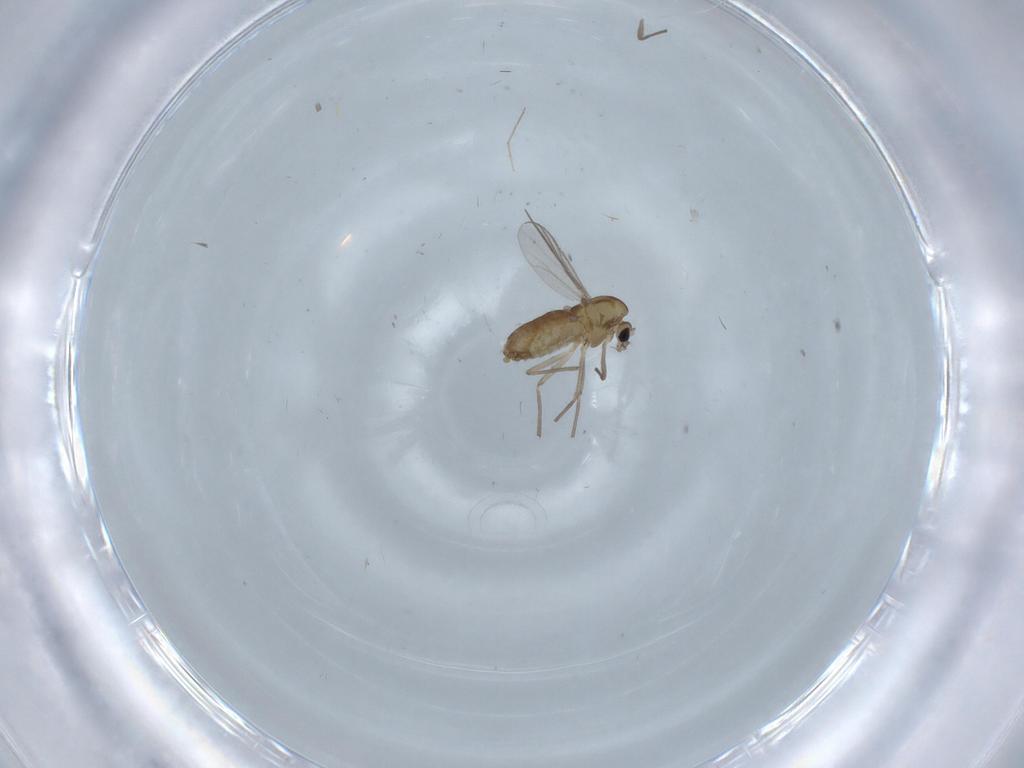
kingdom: Animalia
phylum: Arthropoda
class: Insecta
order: Diptera
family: Chironomidae
